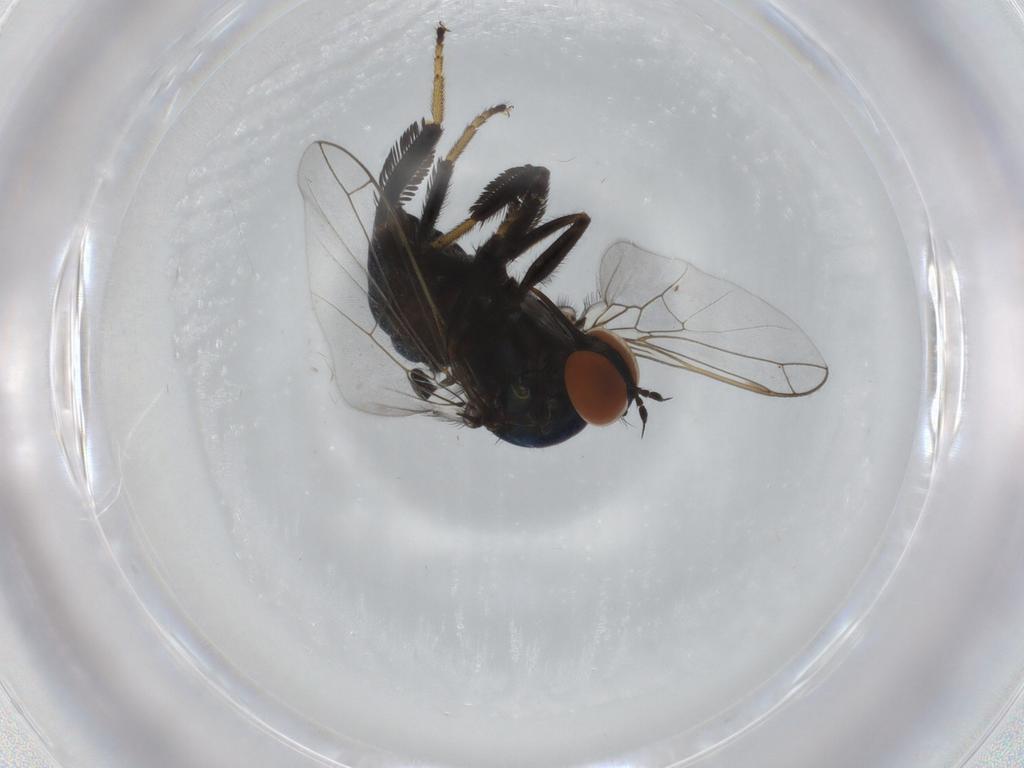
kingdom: Animalia
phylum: Arthropoda
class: Insecta
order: Diptera
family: Empididae
